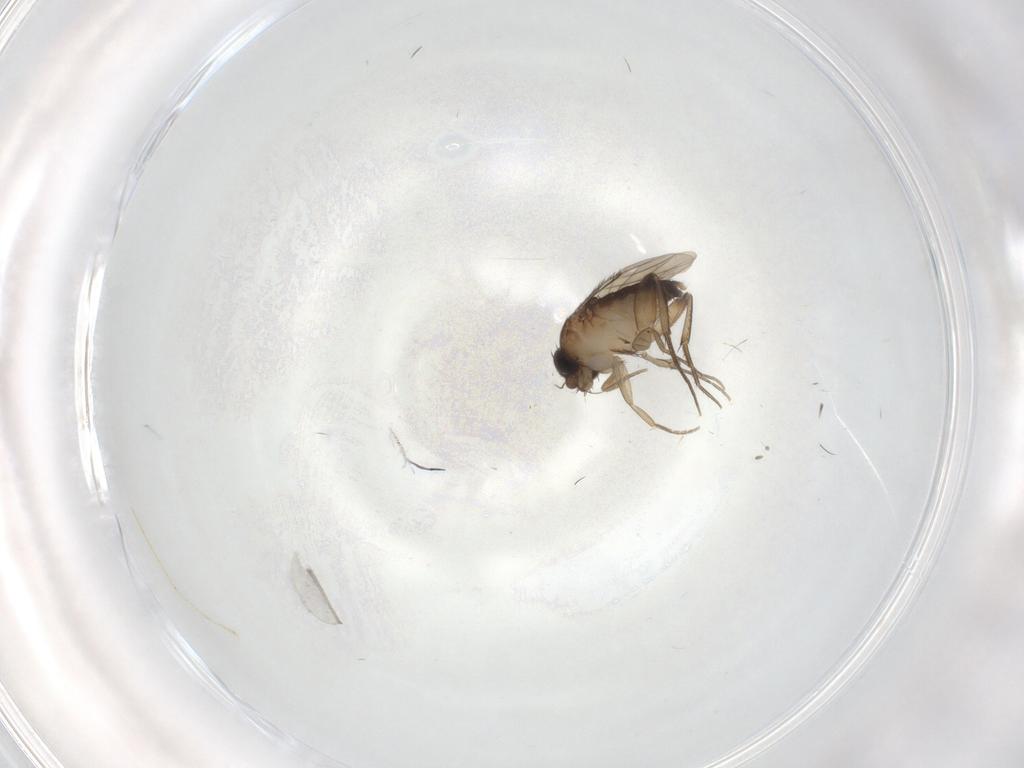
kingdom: Animalia
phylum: Arthropoda
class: Insecta
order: Diptera
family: Phoridae
